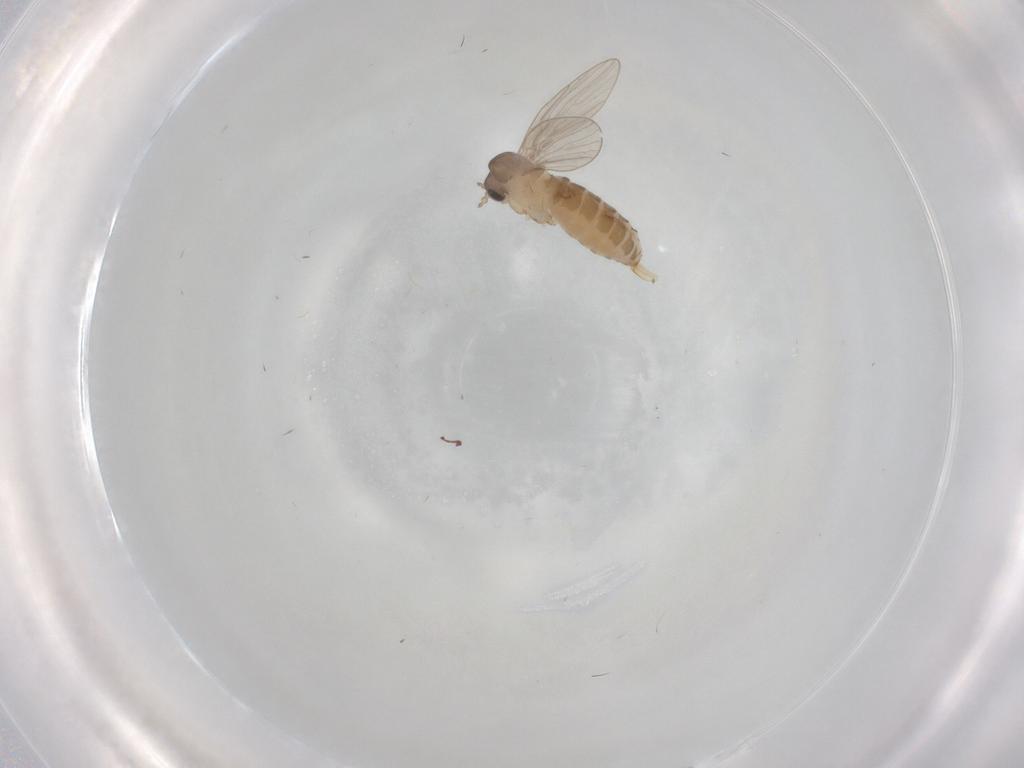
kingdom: Animalia
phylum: Arthropoda
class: Insecta
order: Diptera
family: Psychodidae
